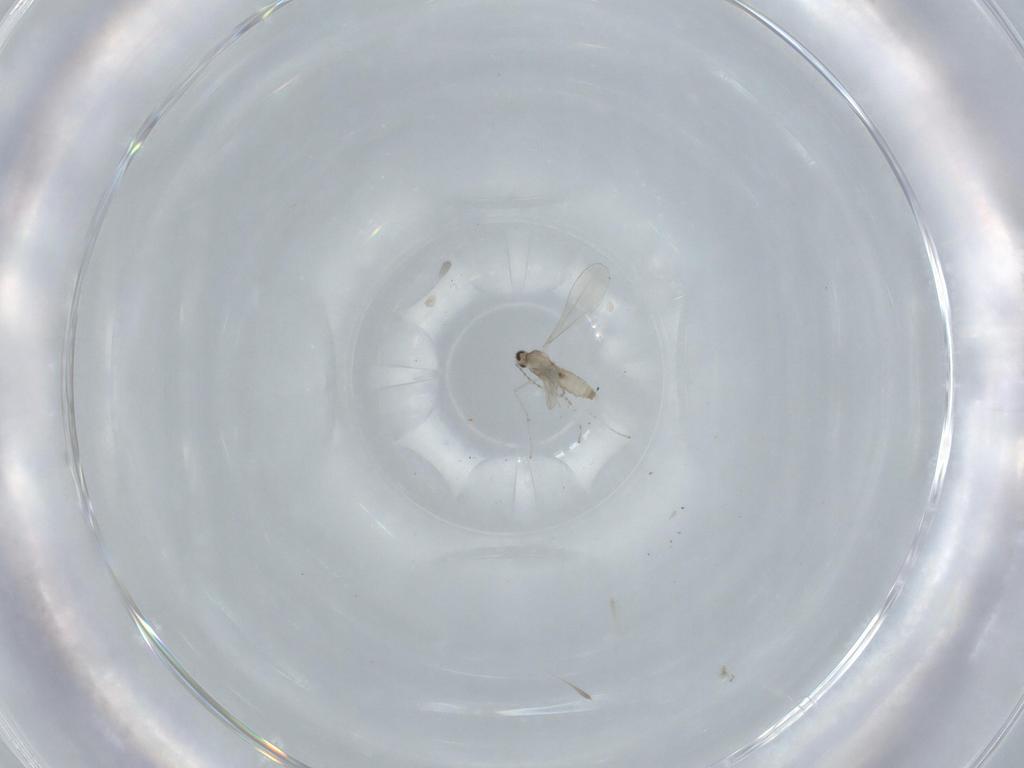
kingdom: Animalia
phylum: Arthropoda
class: Insecta
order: Diptera
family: Cecidomyiidae
